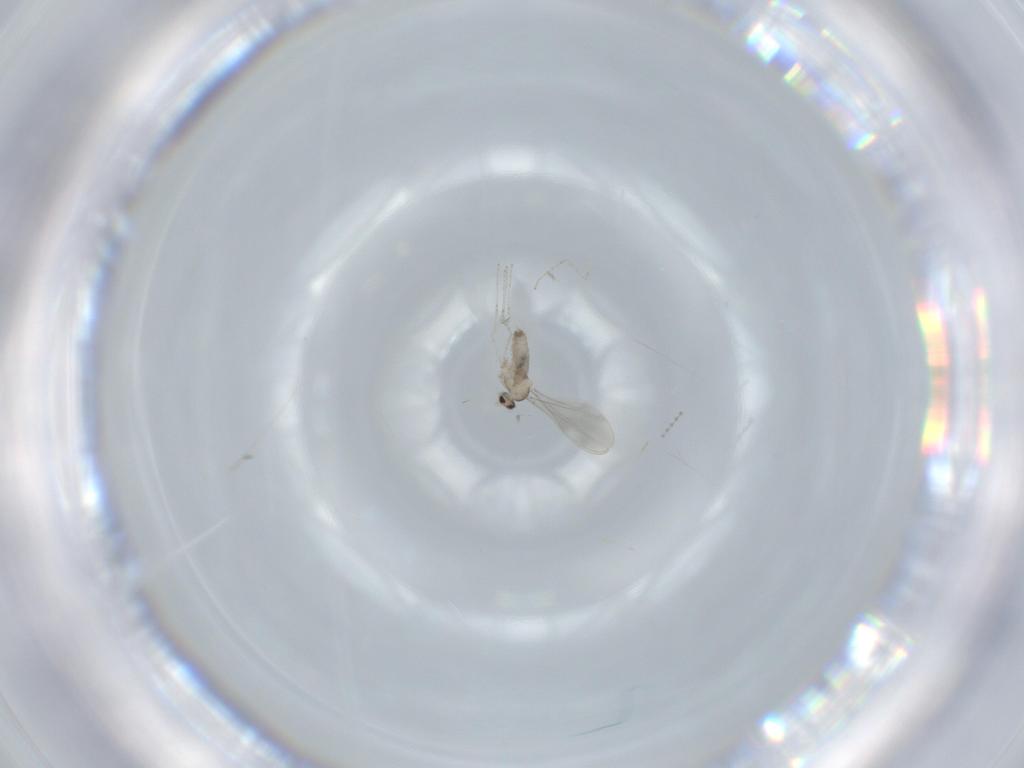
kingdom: Animalia
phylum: Arthropoda
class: Insecta
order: Diptera
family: Cecidomyiidae
